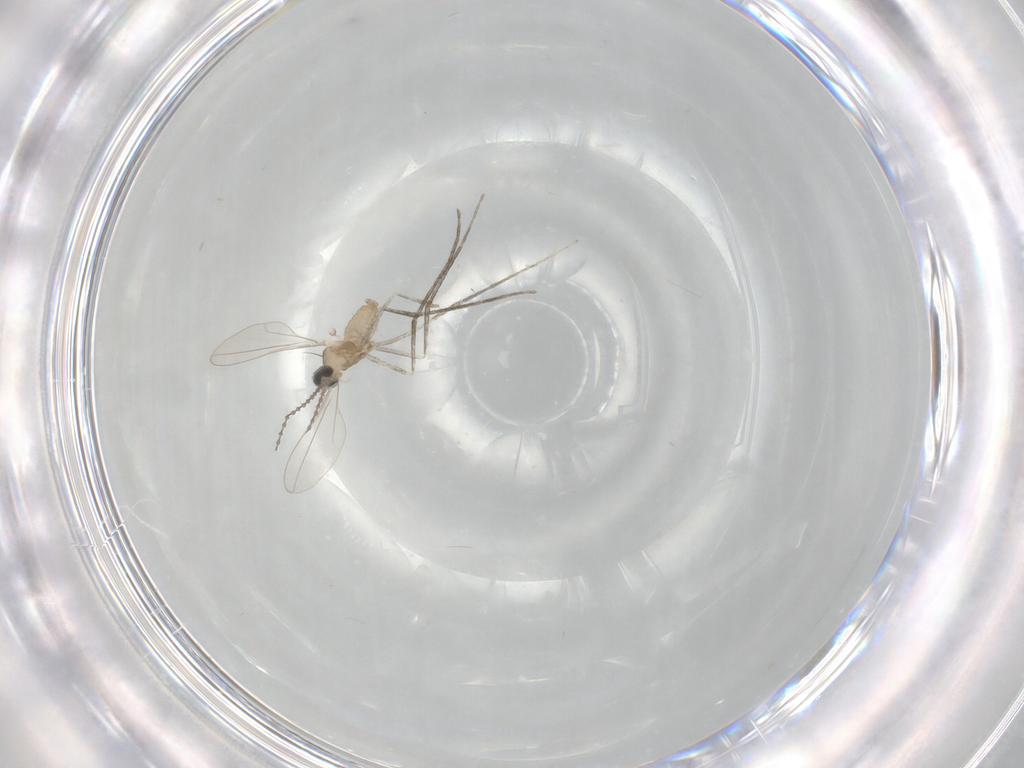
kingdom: Animalia
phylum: Arthropoda
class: Insecta
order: Diptera
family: Cecidomyiidae
